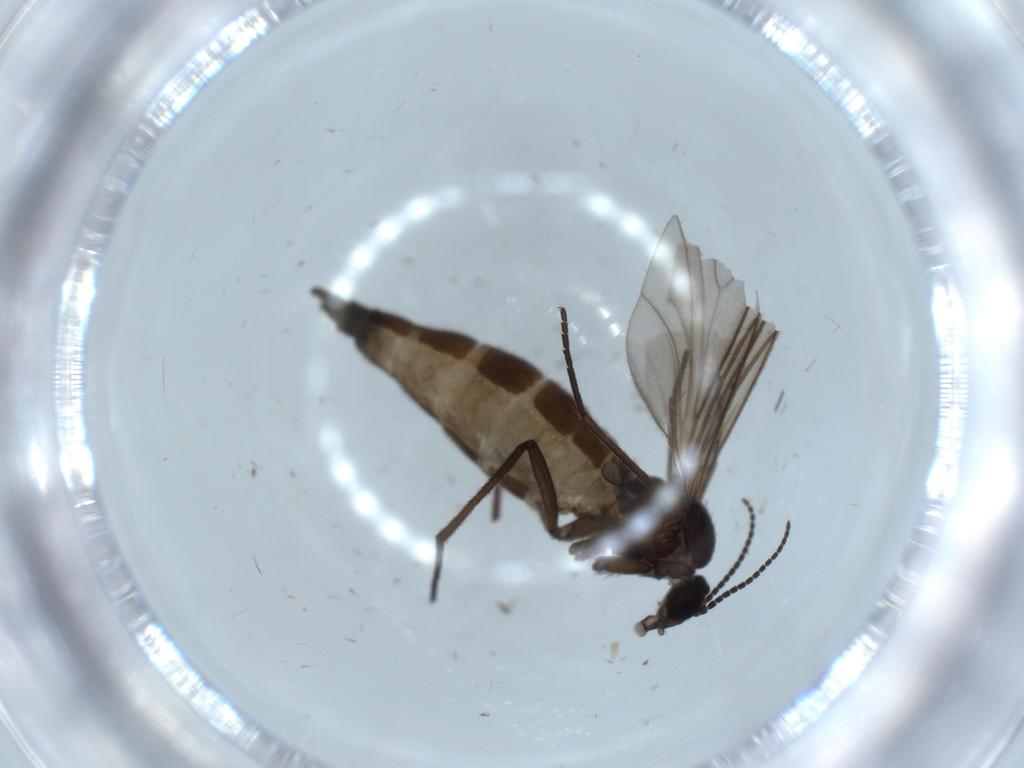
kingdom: Animalia
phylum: Arthropoda
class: Insecta
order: Diptera
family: Sciaridae
